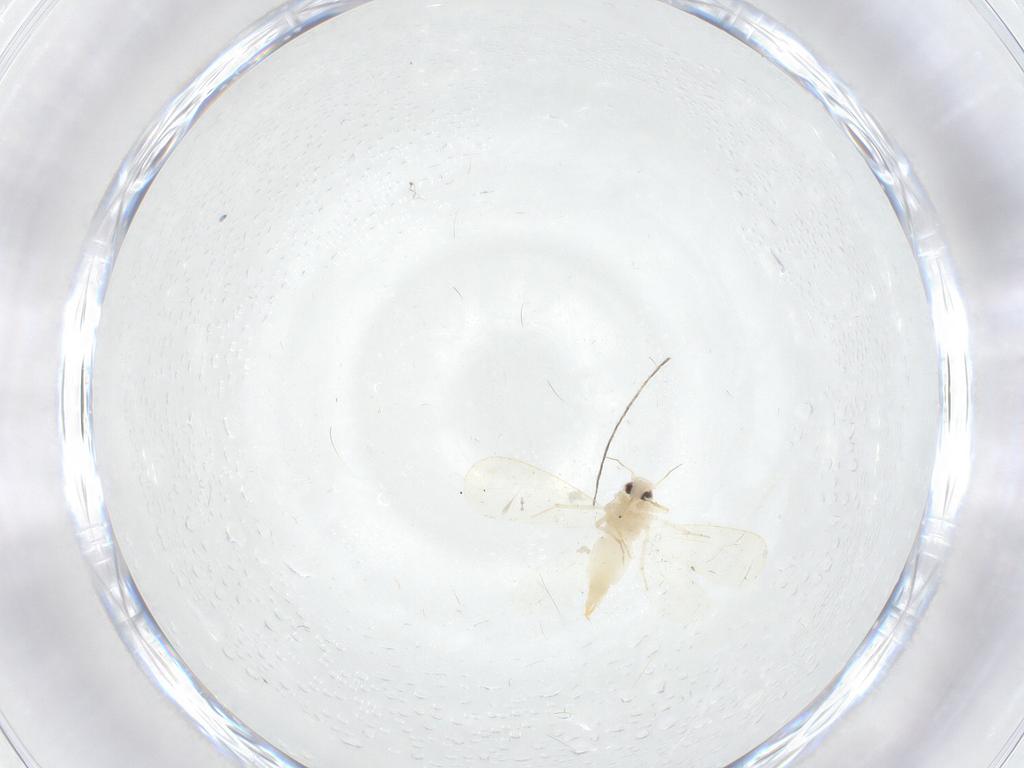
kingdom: Animalia
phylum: Arthropoda
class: Insecta
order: Hemiptera
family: Aleyrodidae
